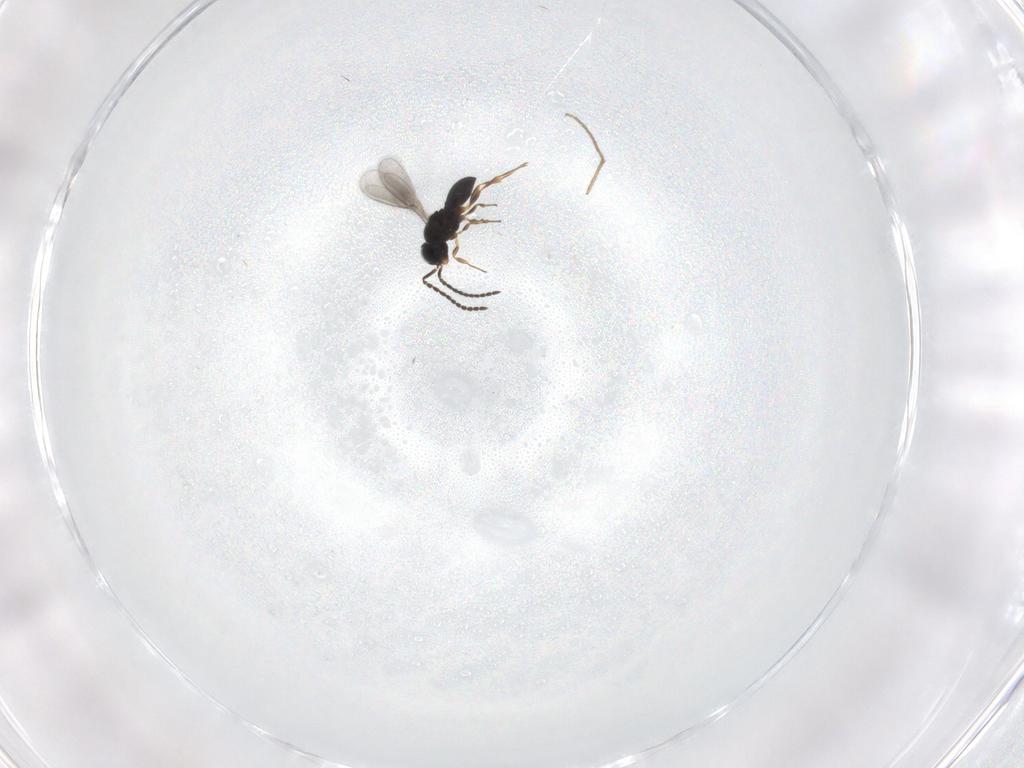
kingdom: Animalia
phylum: Arthropoda
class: Insecta
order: Hymenoptera
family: Scelionidae
